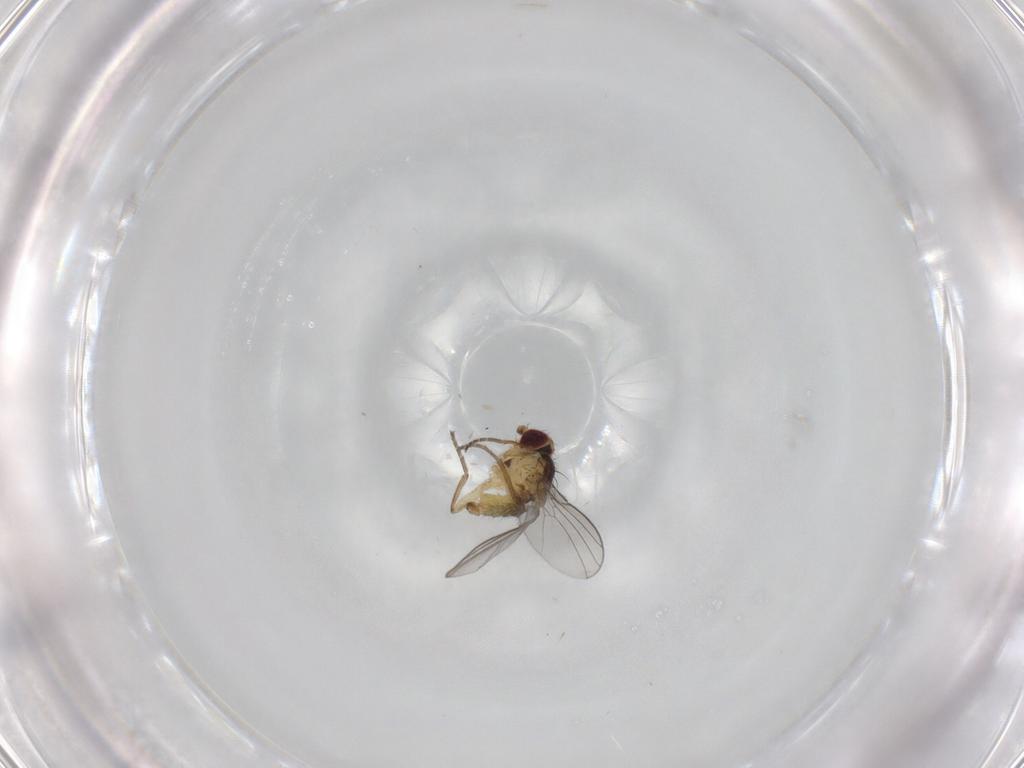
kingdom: Animalia
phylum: Arthropoda
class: Insecta
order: Diptera
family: Agromyzidae
